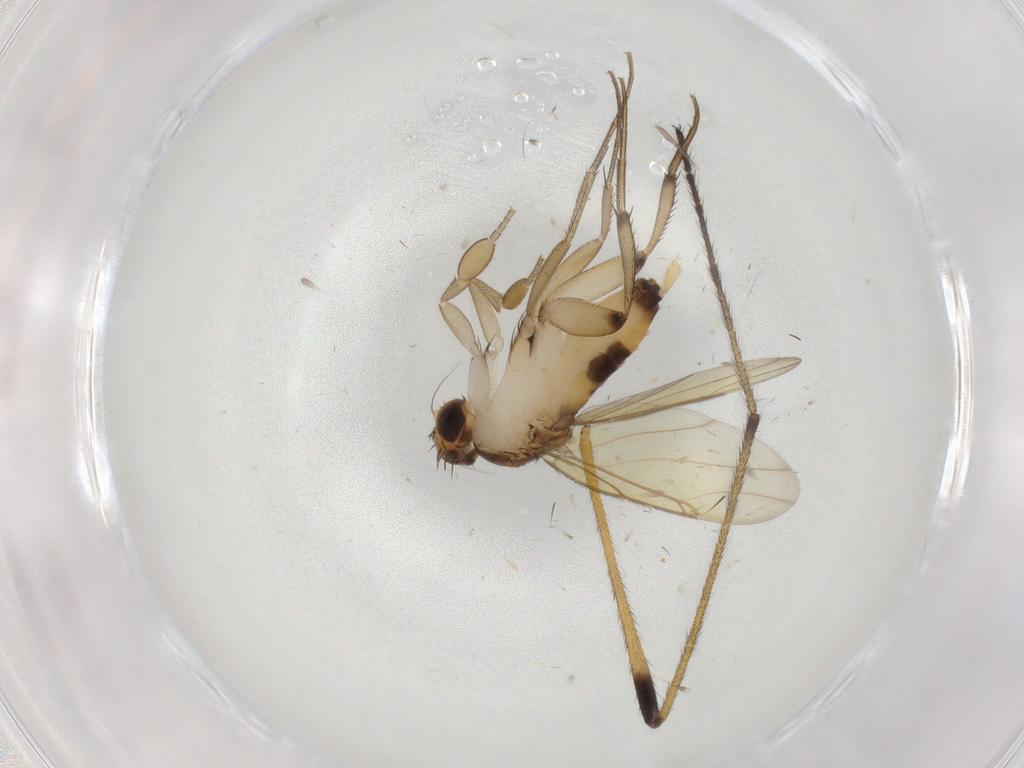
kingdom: Animalia
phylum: Arthropoda
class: Insecta
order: Diptera
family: Phoridae
